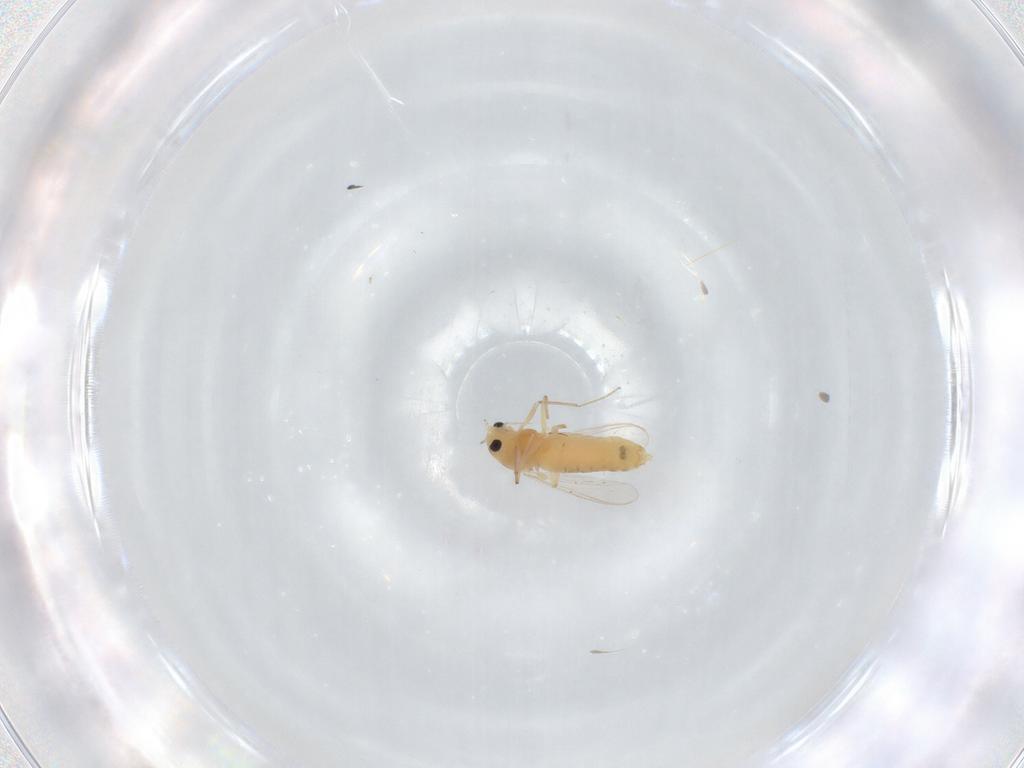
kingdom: Animalia
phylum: Arthropoda
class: Insecta
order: Diptera
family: Chironomidae
